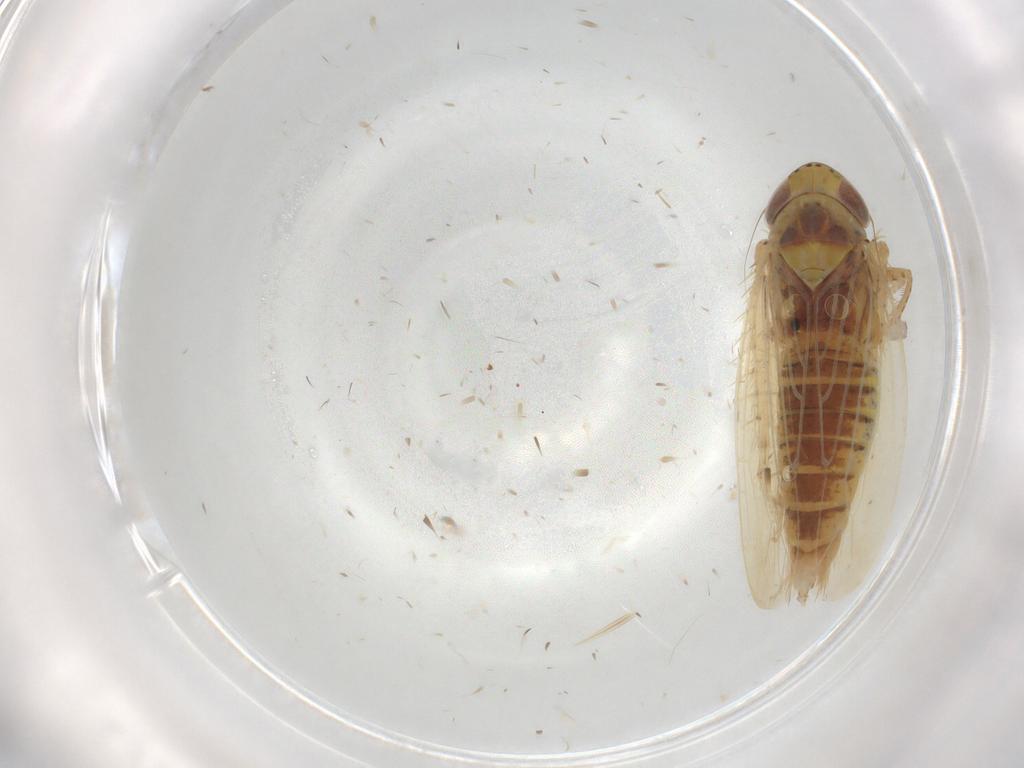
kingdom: Animalia
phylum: Arthropoda
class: Insecta
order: Hemiptera
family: Cicadellidae
